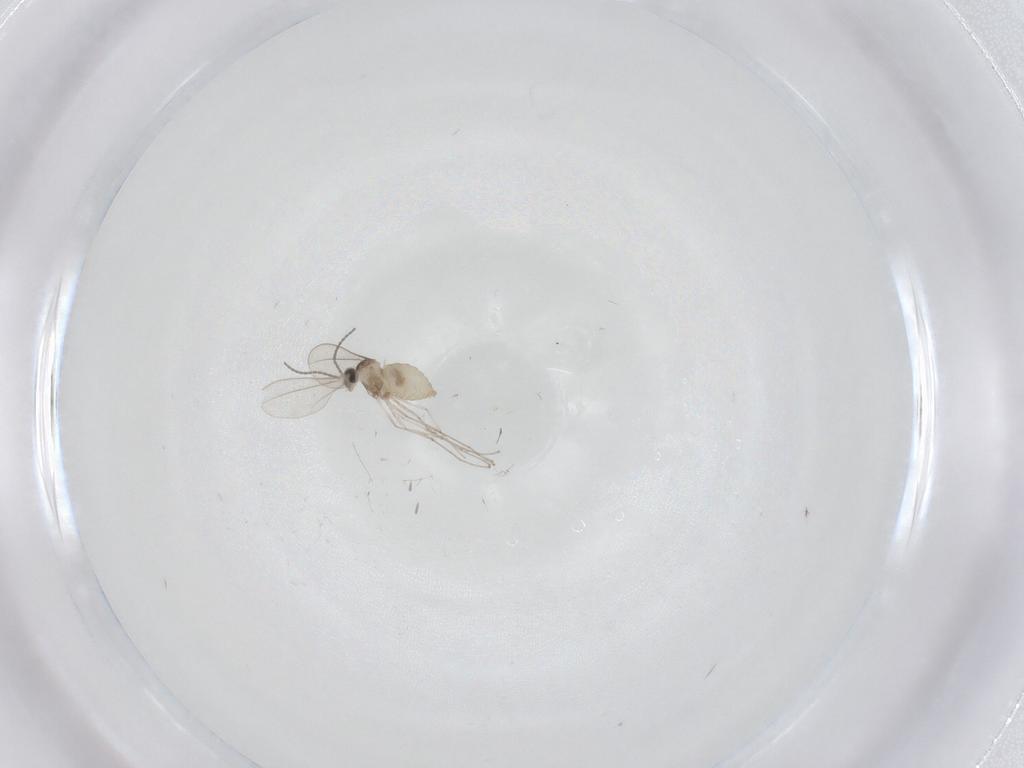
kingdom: Animalia
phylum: Arthropoda
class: Insecta
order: Diptera
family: Cecidomyiidae
